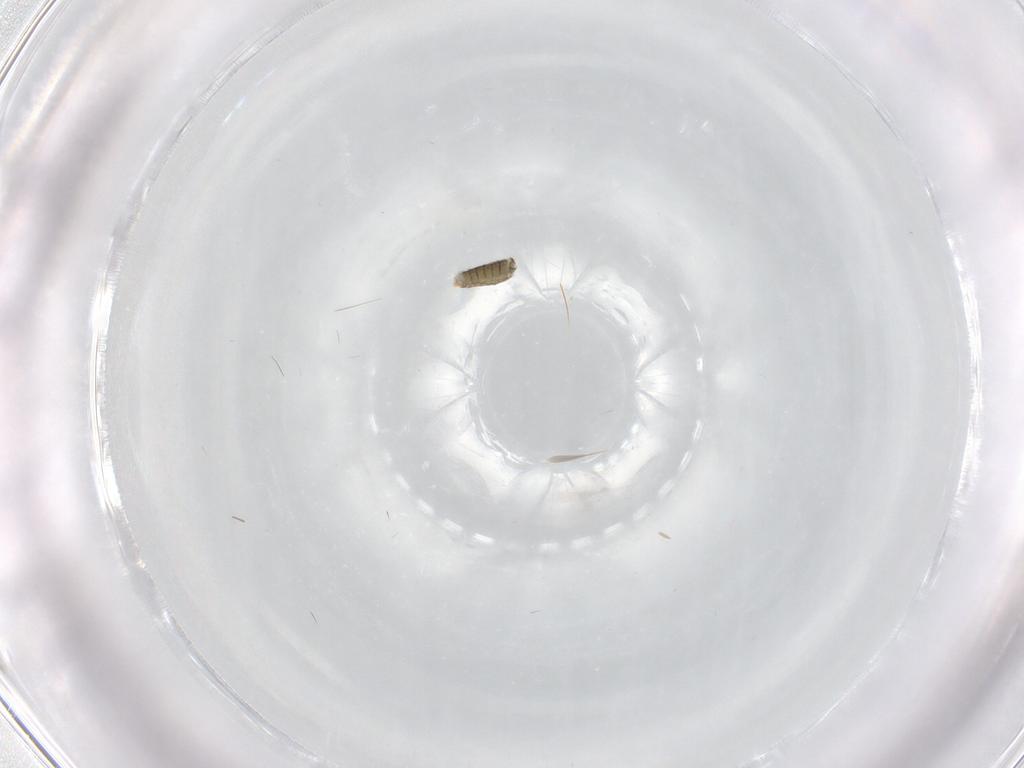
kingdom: Animalia
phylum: Arthropoda
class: Insecta
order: Diptera
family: Chironomidae
